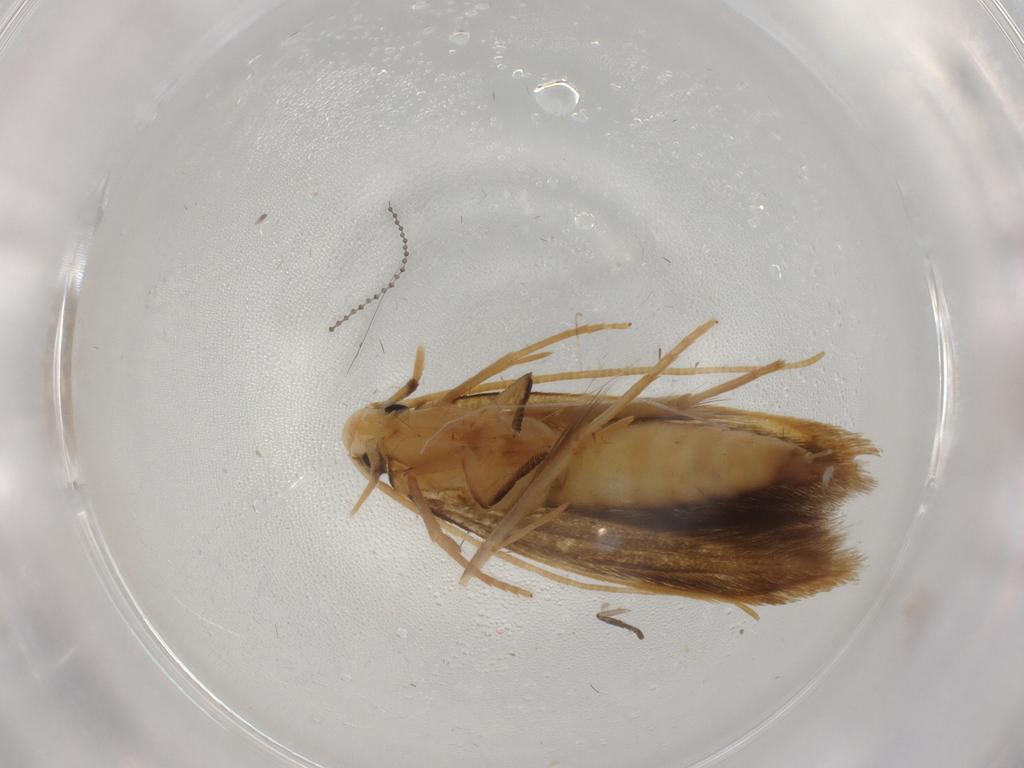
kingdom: Animalia
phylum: Arthropoda
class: Insecta
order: Lepidoptera
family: Tineidae
